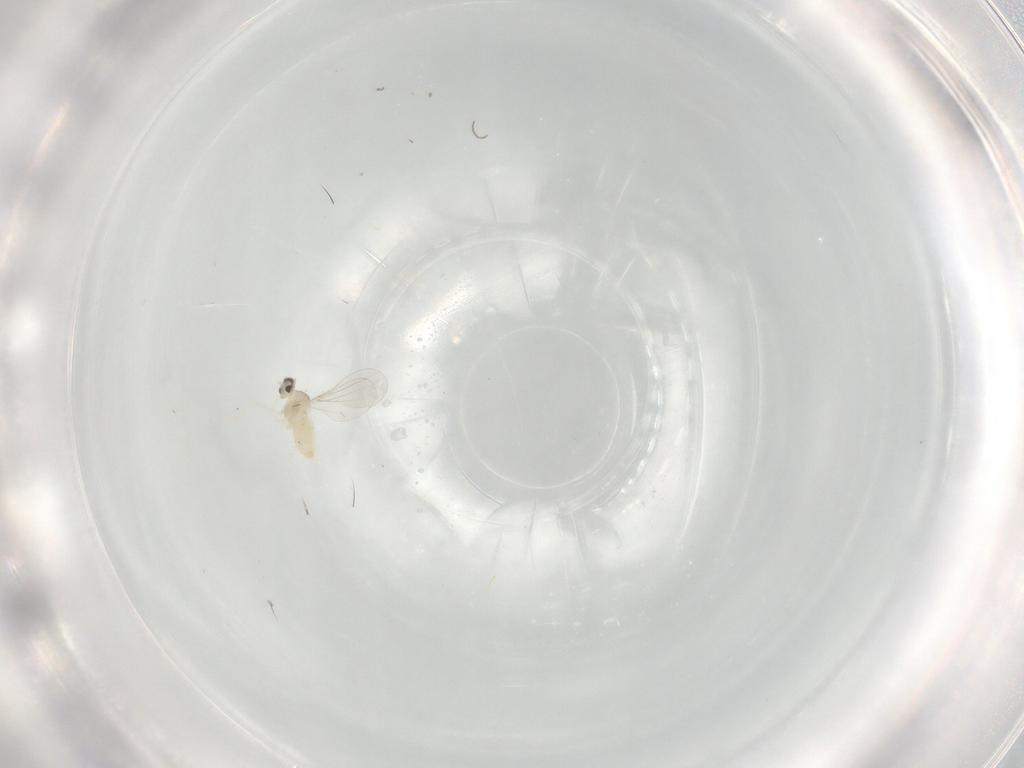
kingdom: Animalia
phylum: Arthropoda
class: Insecta
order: Diptera
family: Cecidomyiidae
